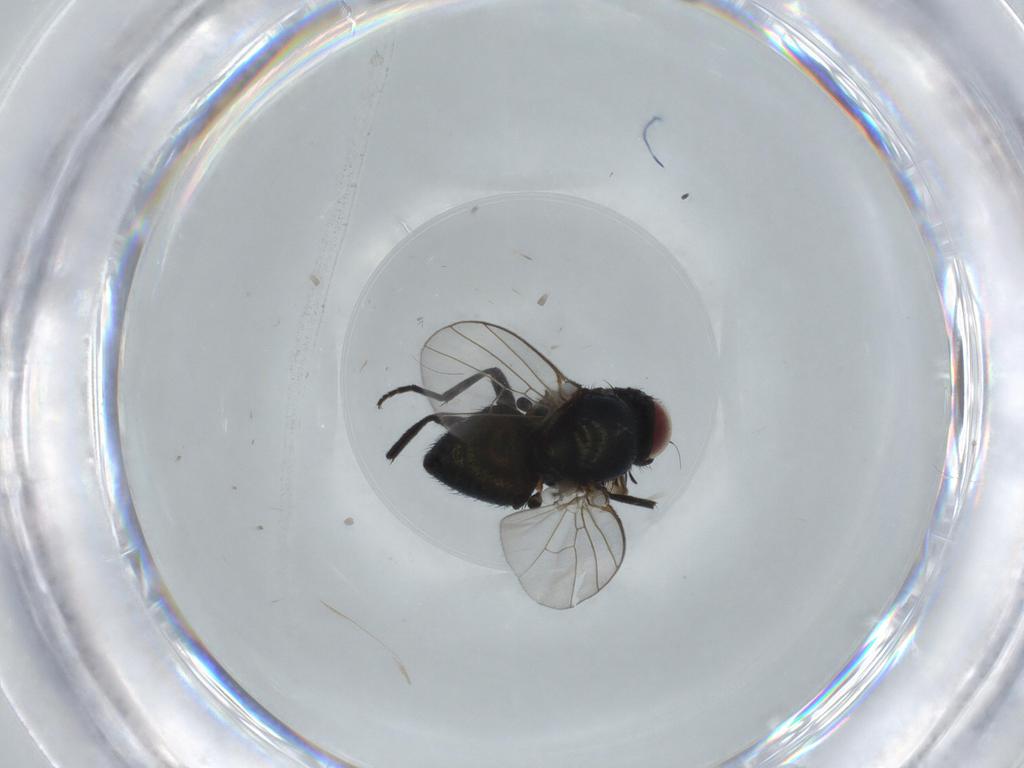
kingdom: Animalia
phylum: Arthropoda
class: Insecta
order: Diptera
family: Agromyzidae
